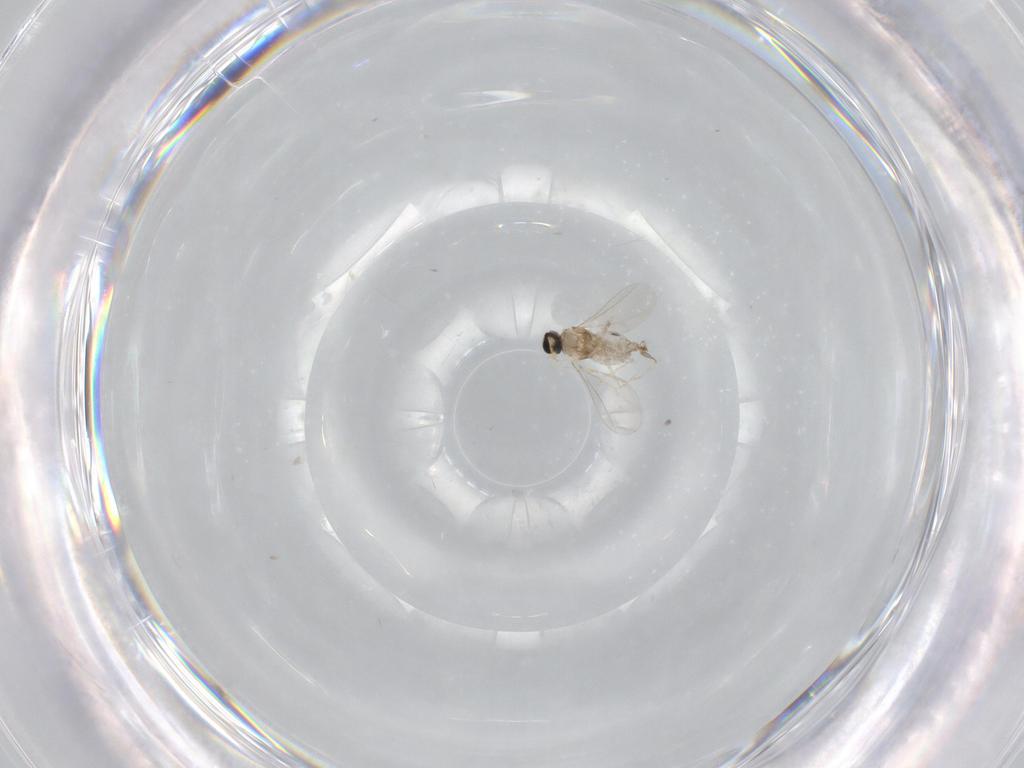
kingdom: Animalia
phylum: Arthropoda
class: Insecta
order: Diptera
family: Cecidomyiidae
